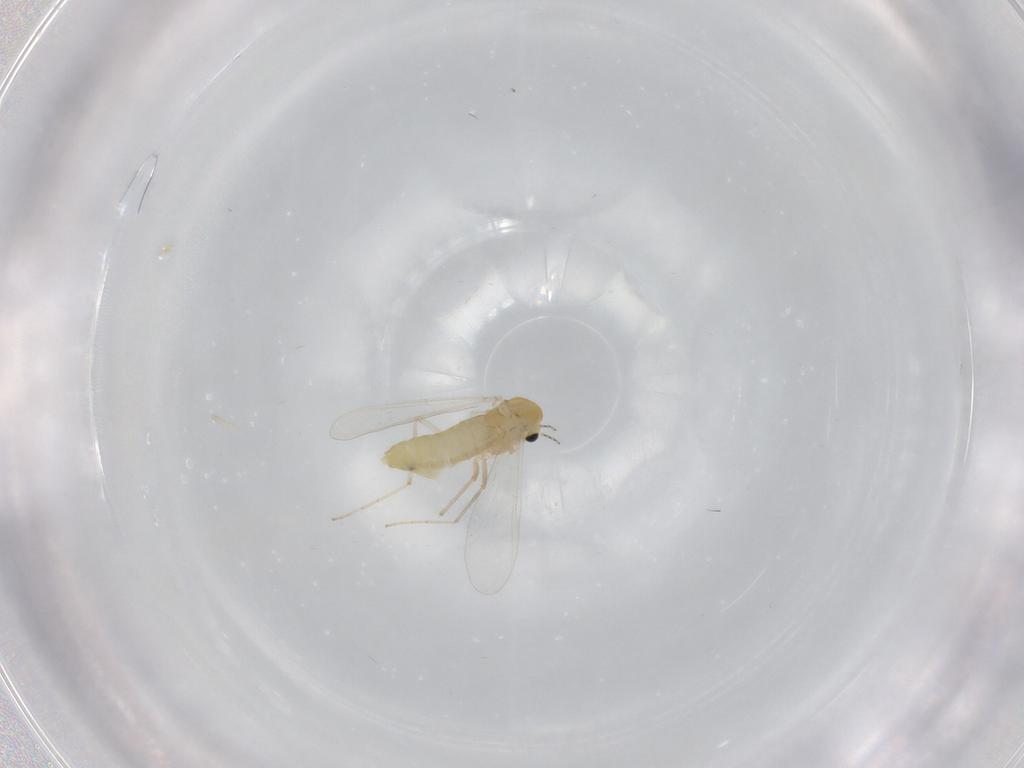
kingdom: Animalia
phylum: Arthropoda
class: Insecta
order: Diptera
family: Chironomidae
